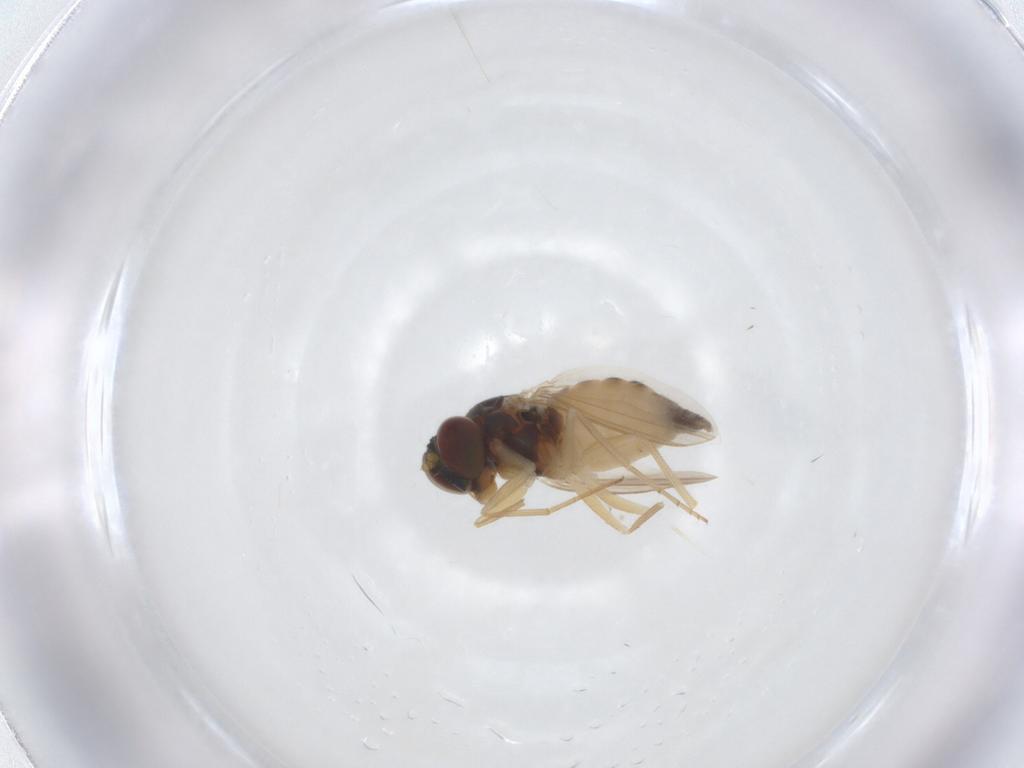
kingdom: Animalia
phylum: Arthropoda
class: Insecta
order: Diptera
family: Dolichopodidae
